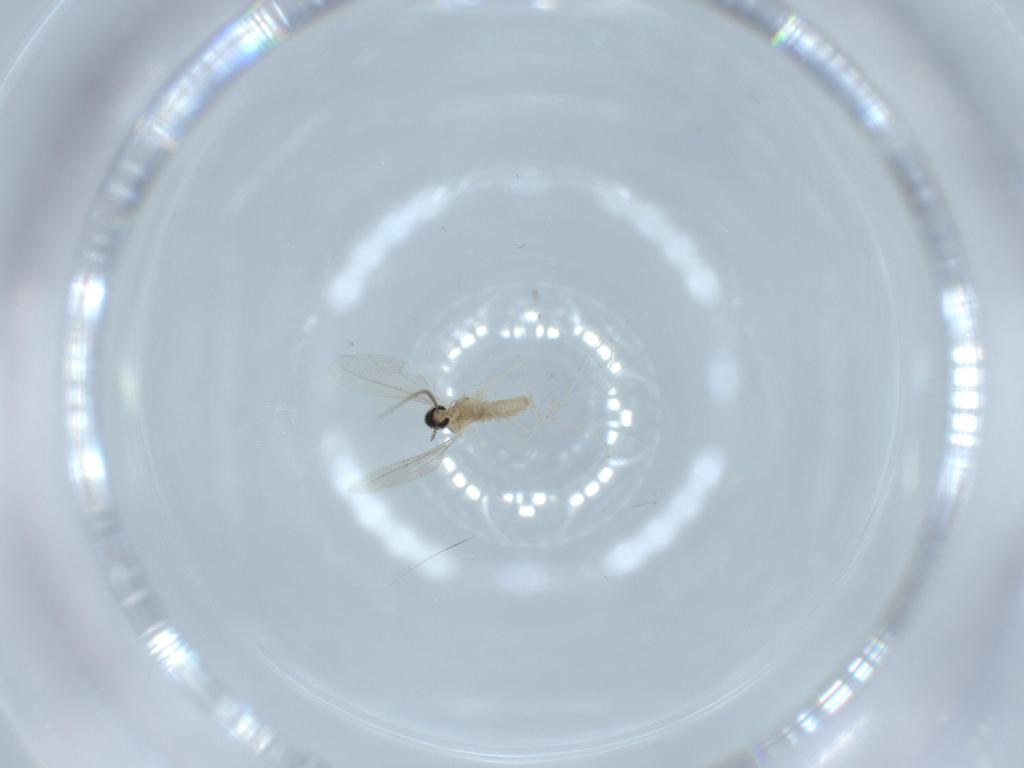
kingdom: Animalia
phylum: Arthropoda
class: Insecta
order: Diptera
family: Cecidomyiidae
